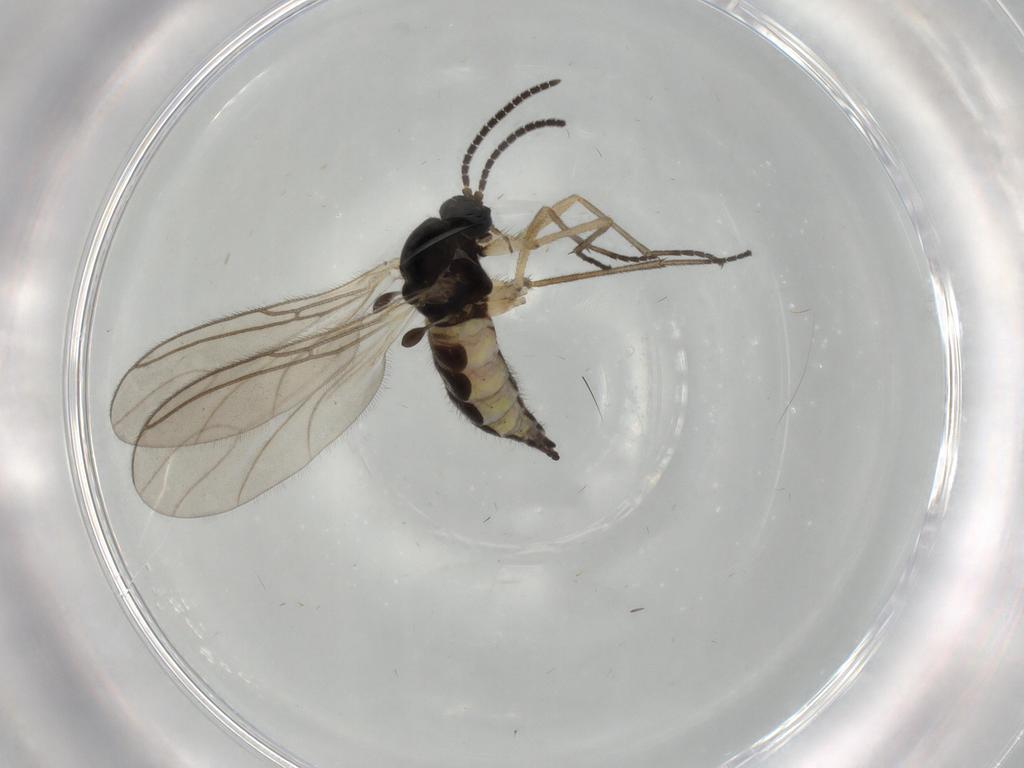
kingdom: Animalia
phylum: Arthropoda
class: Insecta
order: Diptera
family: Sciaridae
